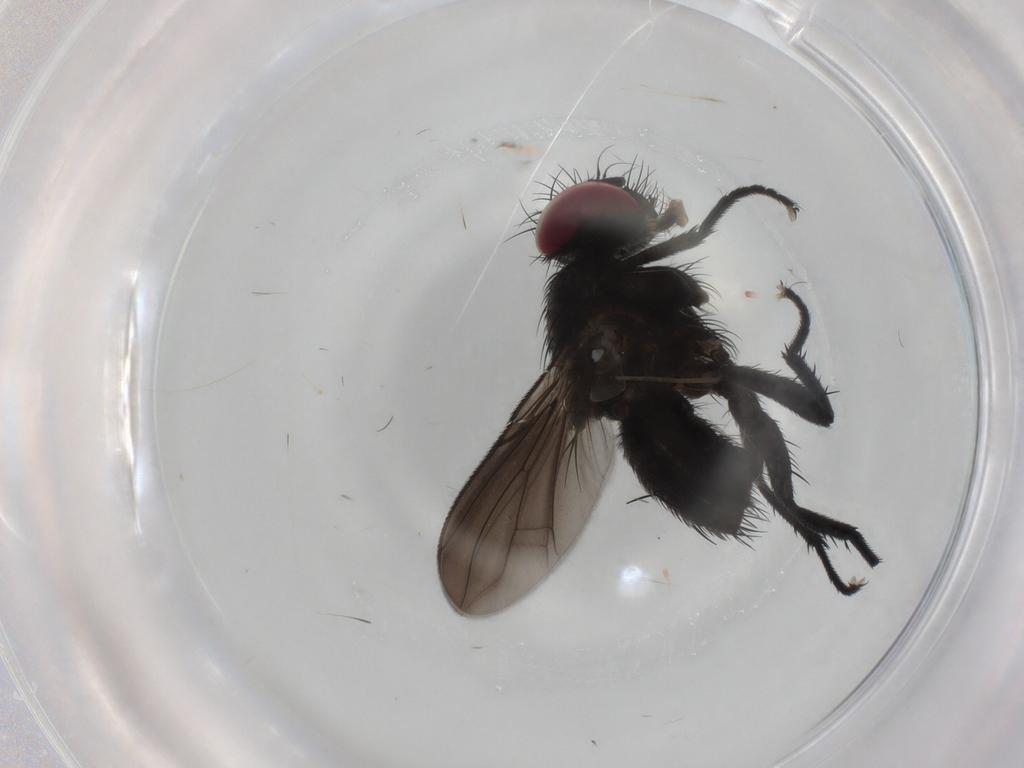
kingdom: Animalia
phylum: Arthropoda
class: Insecta
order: Diptera
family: Calliphoridae
